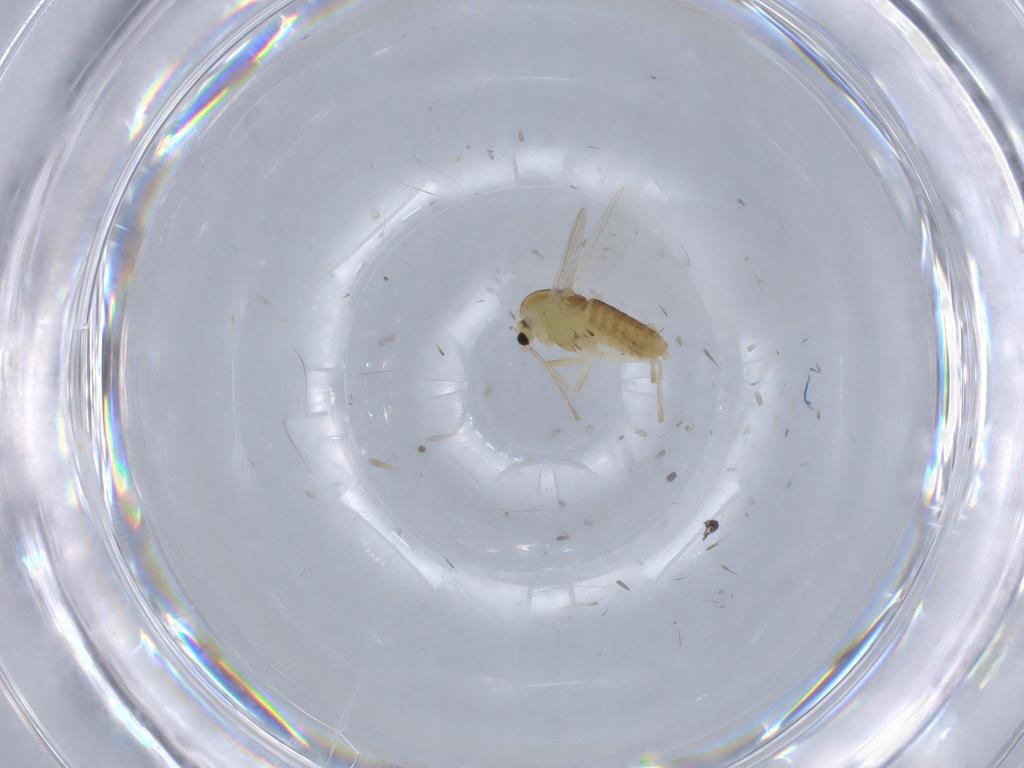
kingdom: Animalia
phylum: Arthropoda
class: Insecta
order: Diptera
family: Chironomidae
